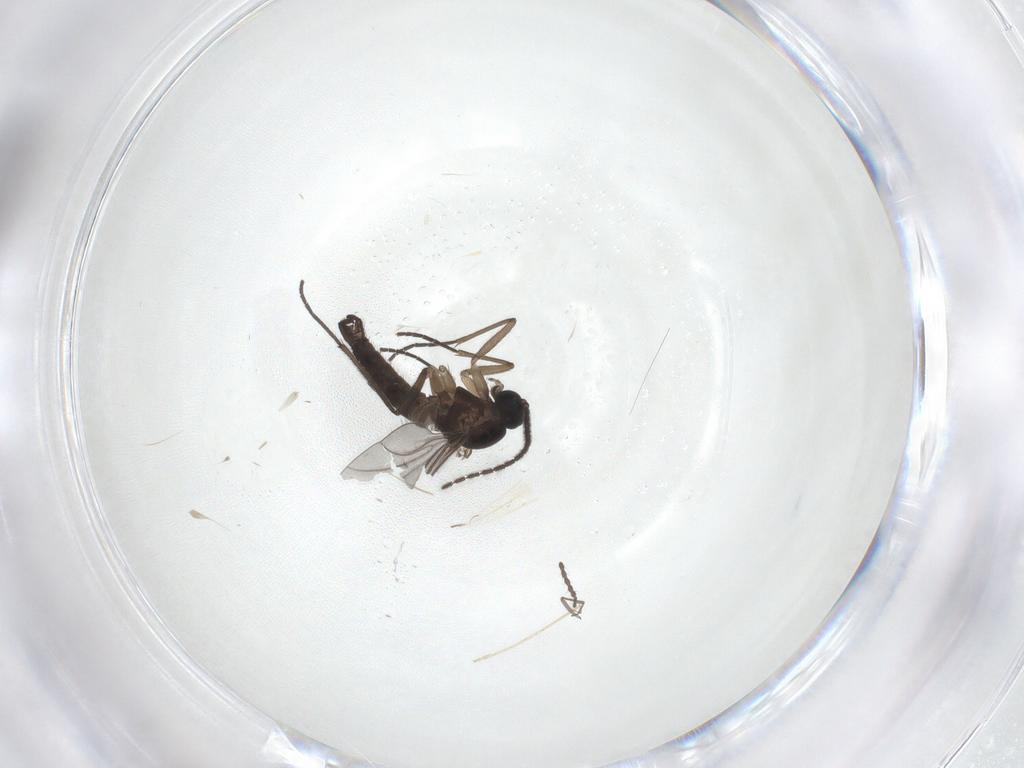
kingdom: Animalia
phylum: Arthropoda
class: Insecta
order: Diptera
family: Sciaridae
